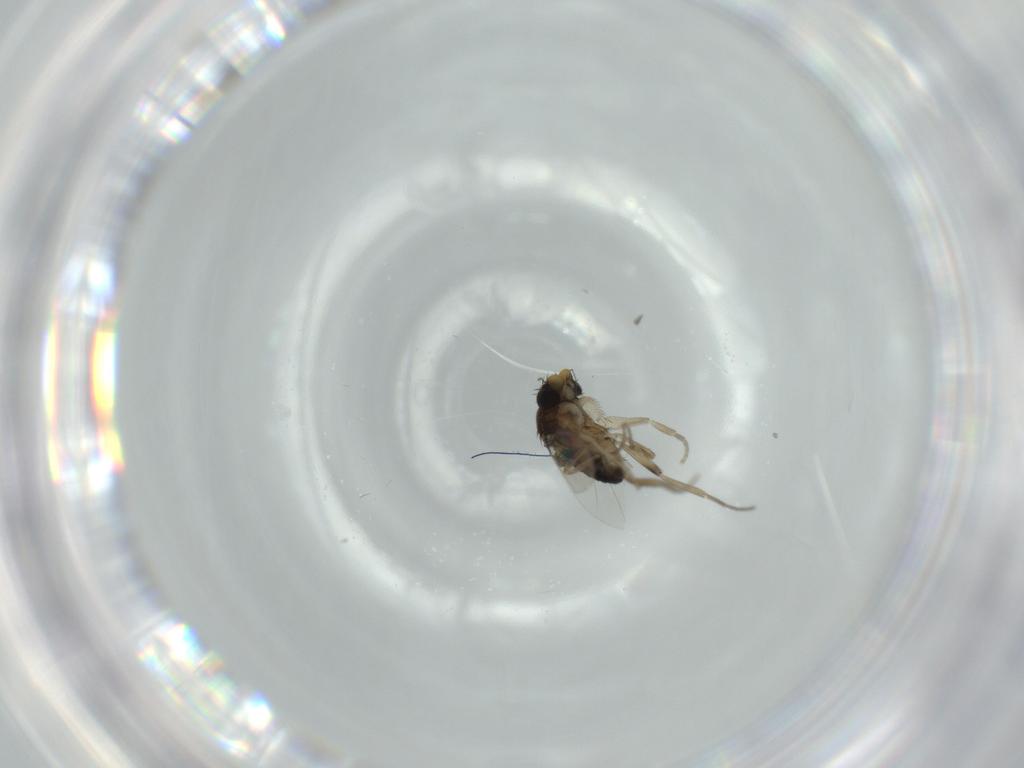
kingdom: Animalia
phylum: Arthropoda
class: Insecta
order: Diptera
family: Phoridae
